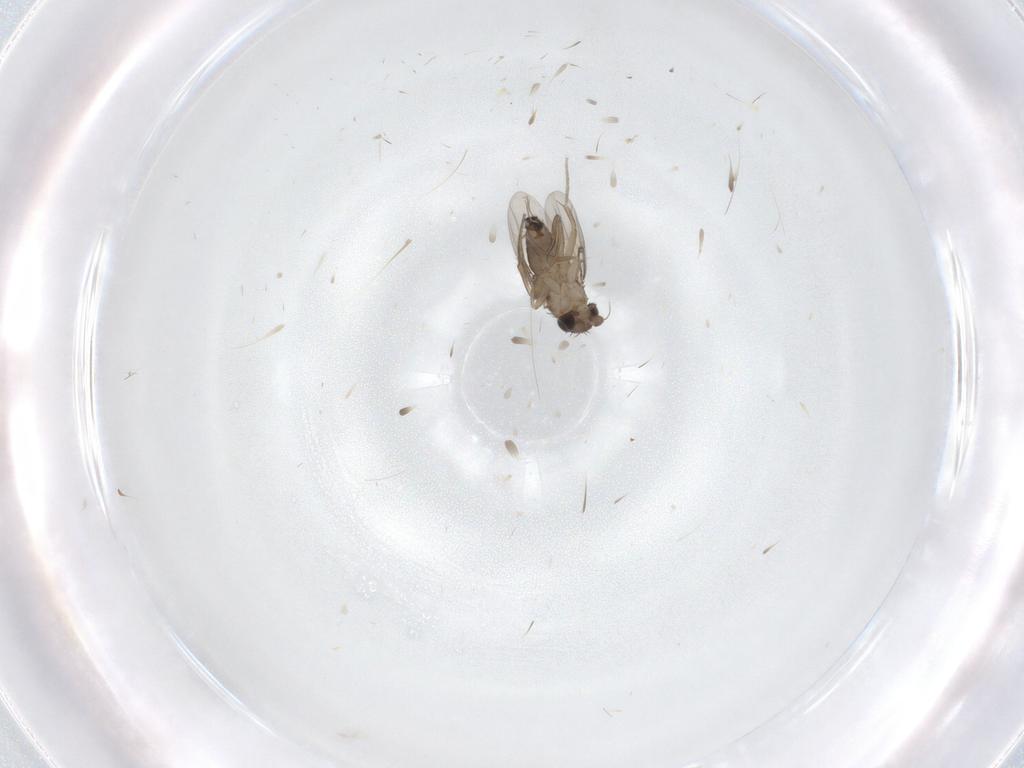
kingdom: Animalia
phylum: Arthropoda
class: Insecta
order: Diptera
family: Phoridae
